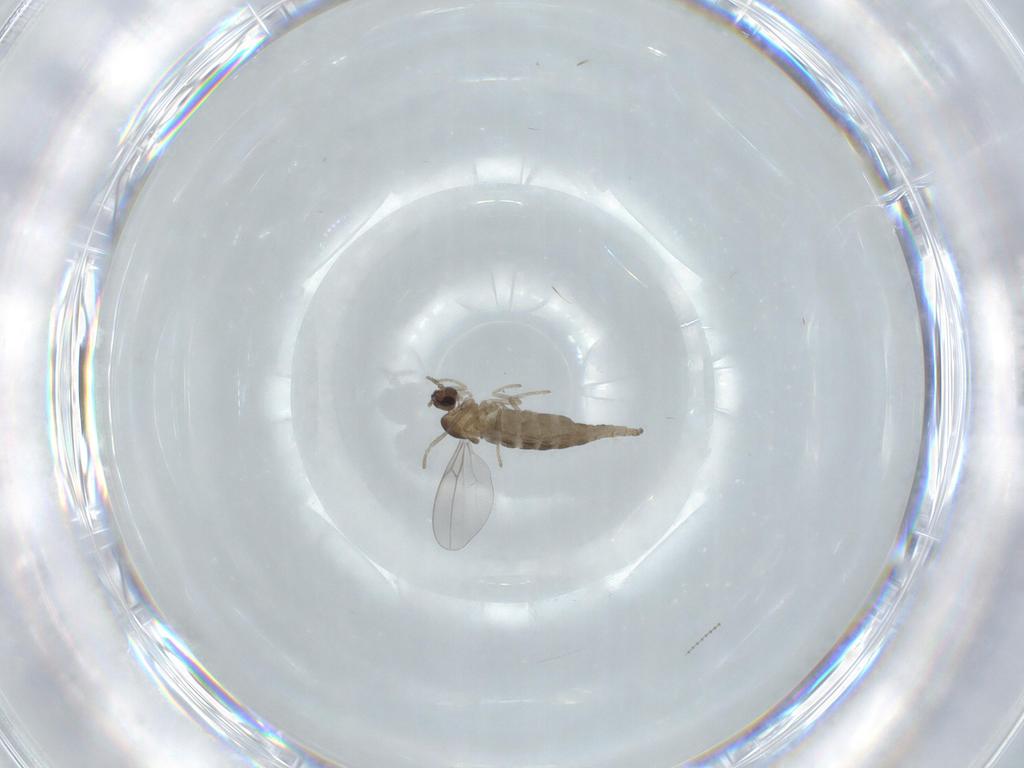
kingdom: Animalia
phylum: Arthropoda
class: Insecta
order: Diptera
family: Cecidomyiidae
